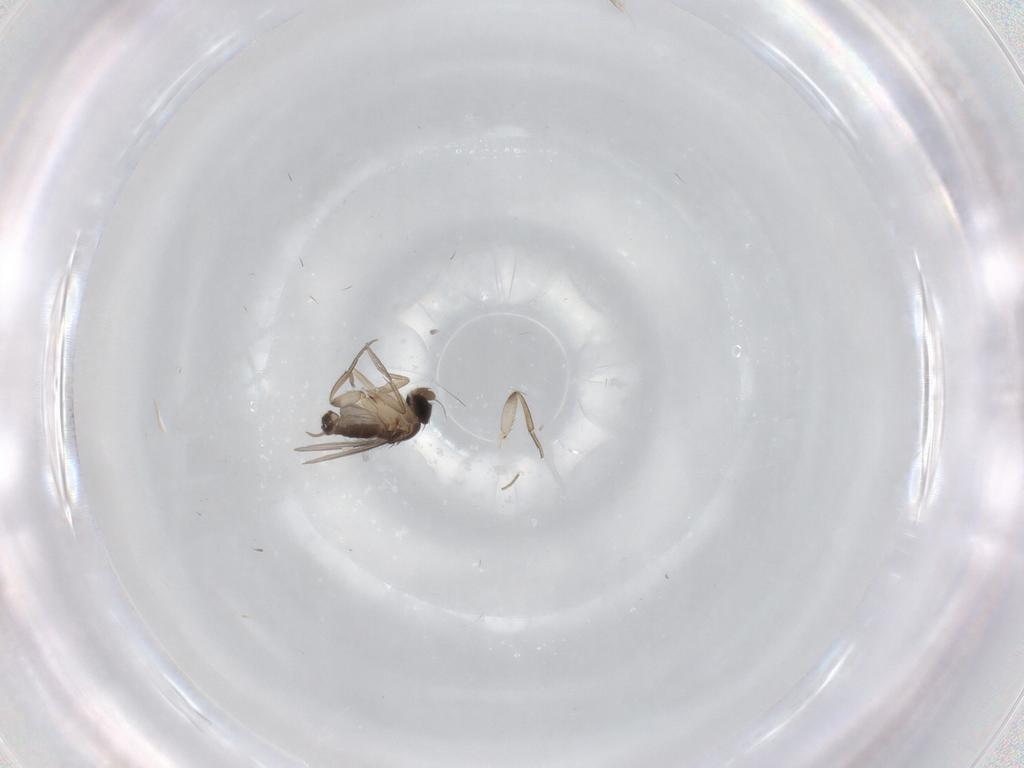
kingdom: Animalia
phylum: Arthropoda
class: Insecta
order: Diptera
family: Phoridae
